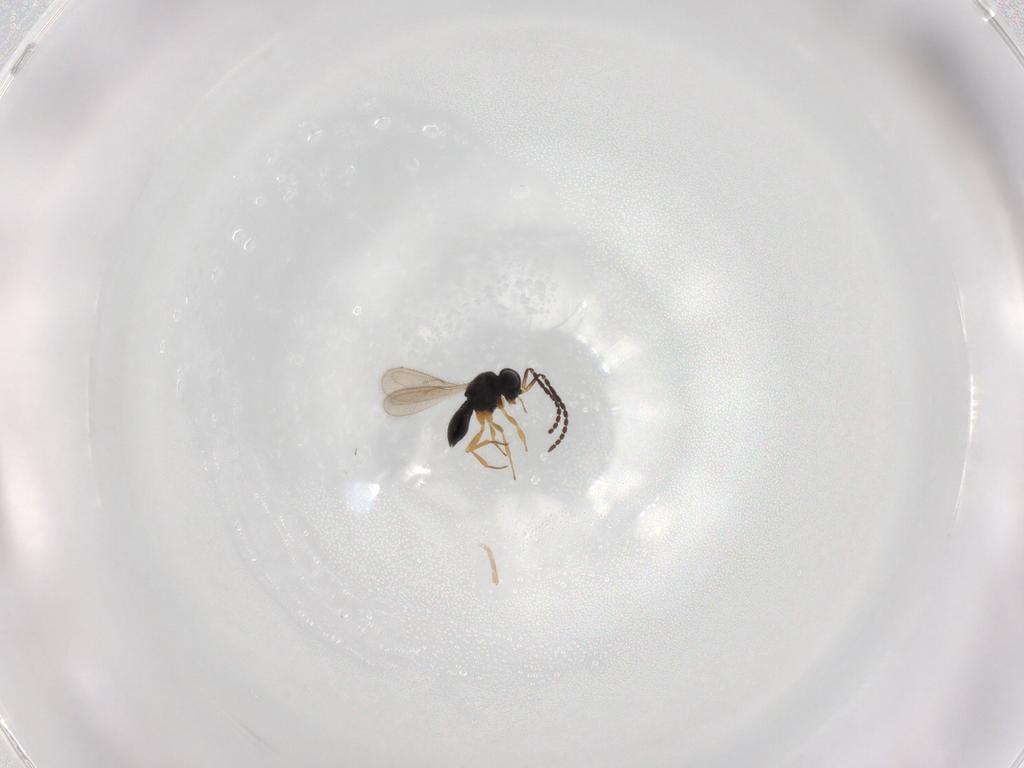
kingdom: Animalia
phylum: Arthropoda
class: Insecta
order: Hymenoptera
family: Scelionidae
